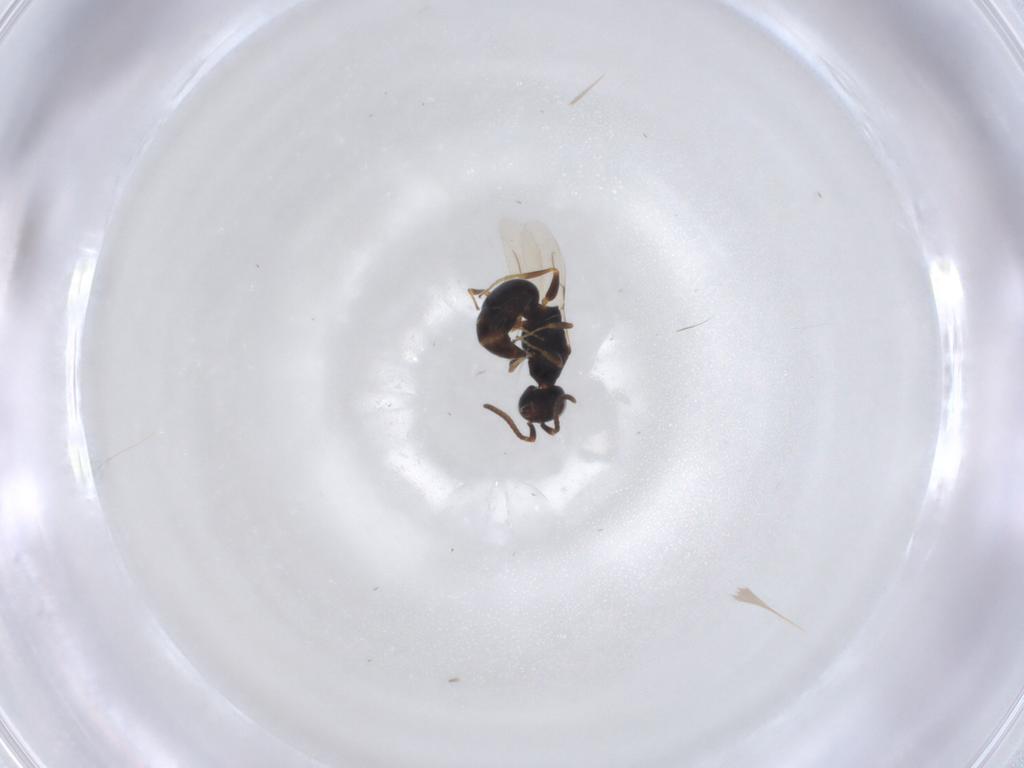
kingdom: Animalia
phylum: Arthropoda
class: Insecta
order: Hymenoptera
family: Bethylidae
